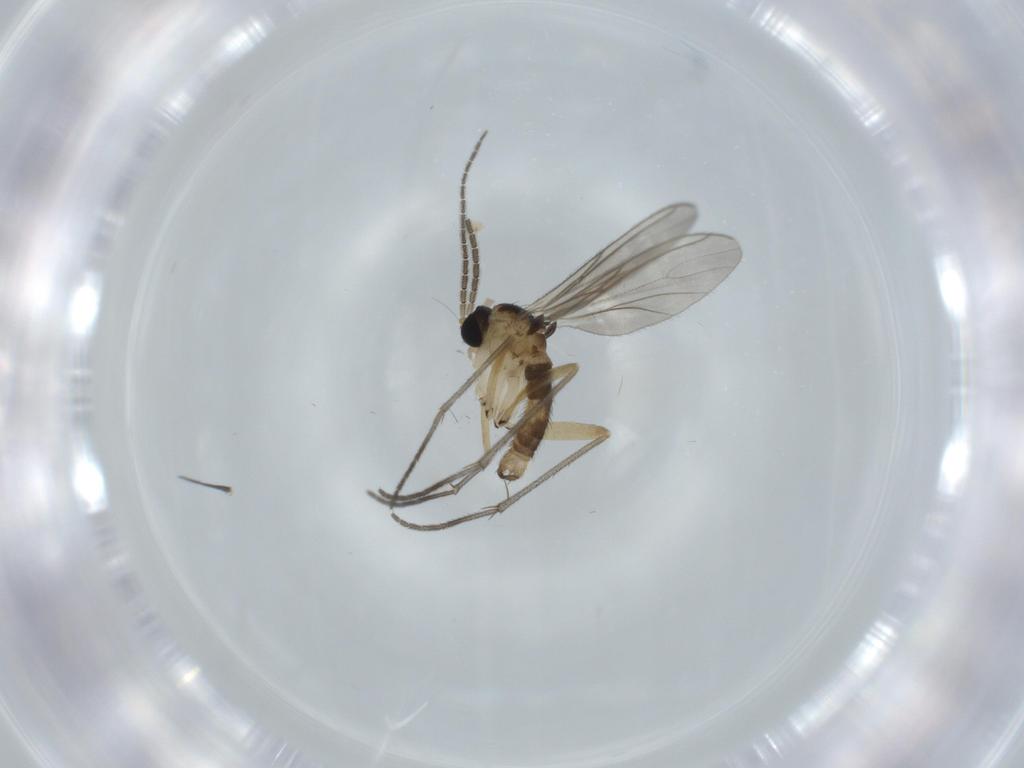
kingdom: Animalia
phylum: Arthropoda
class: Insecta
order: Diptera
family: Sciaridae
